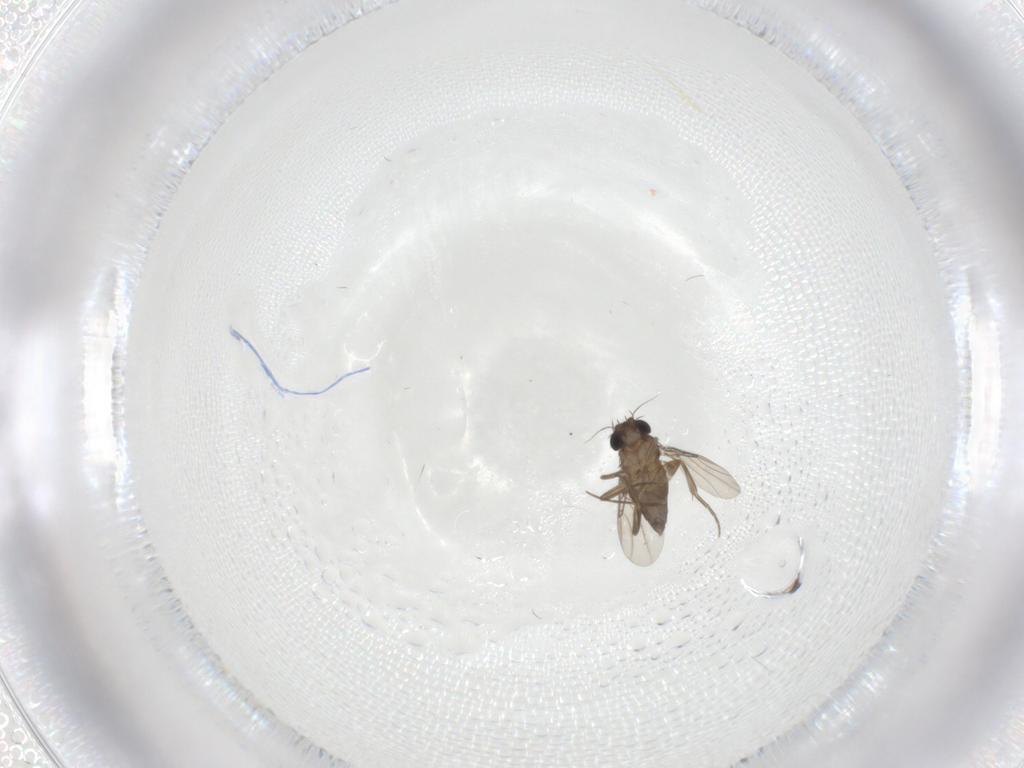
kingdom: Animalia
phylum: Arthropoda
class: Insecta
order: Diptera
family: Phoridae
